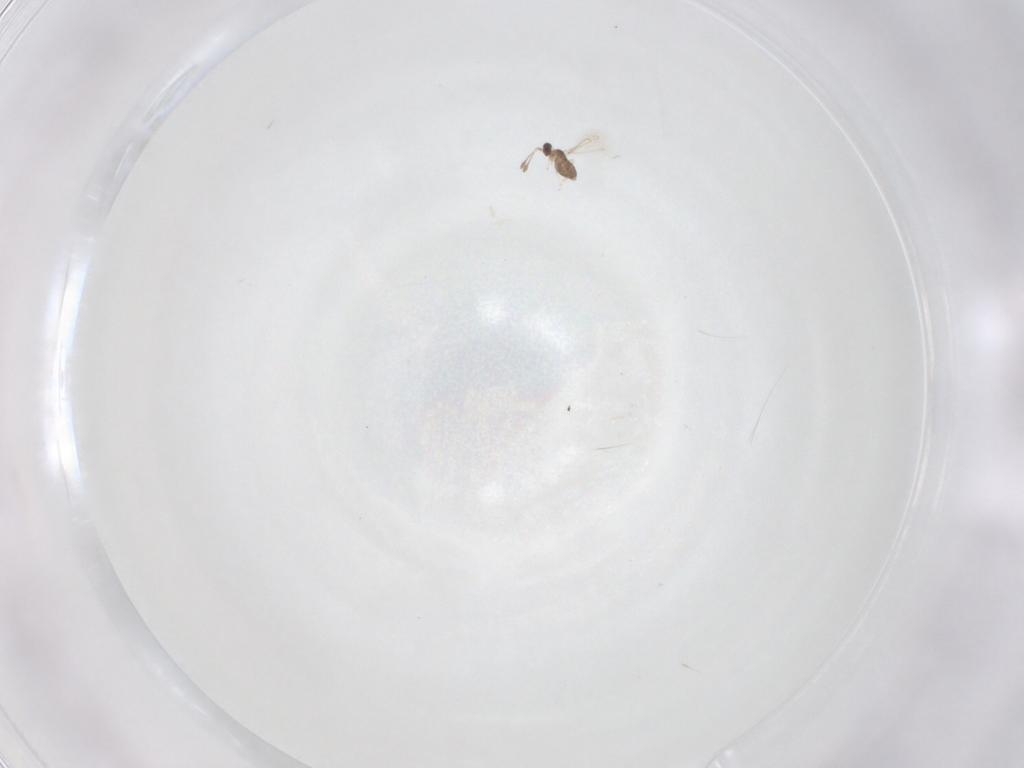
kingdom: Animalia
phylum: Arthropoda
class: Insecta
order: Hymenoptera
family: Mymaridae
